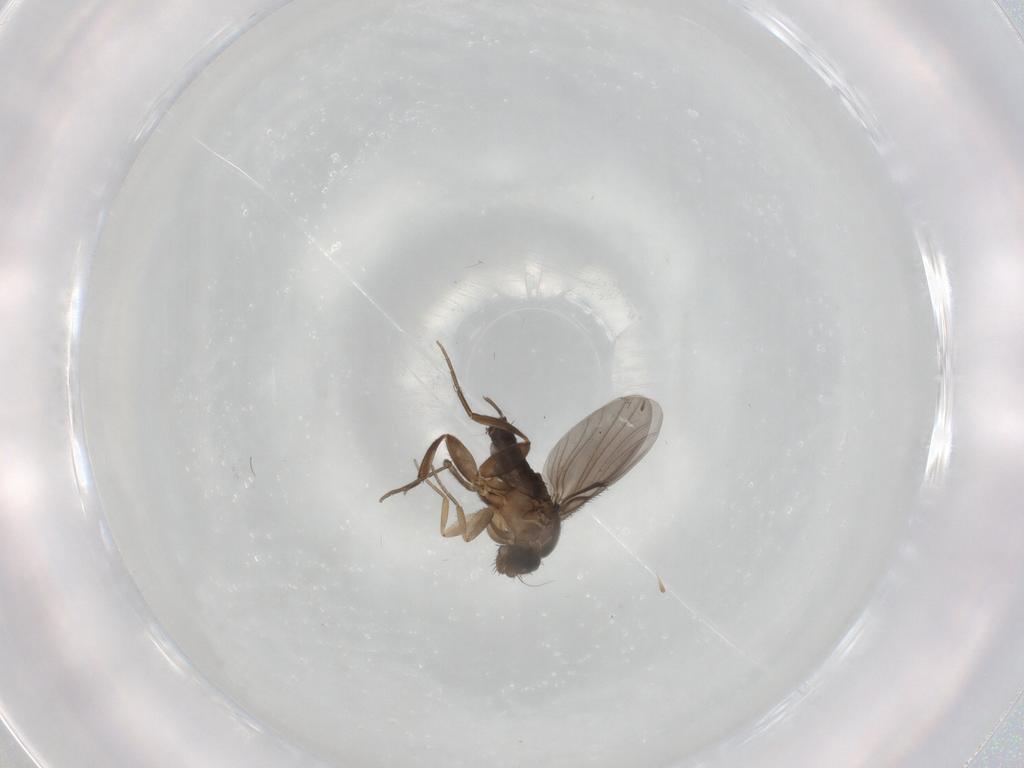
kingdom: Animalia
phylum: Arthropoda
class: Insecta
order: Diptera
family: Phoridae
